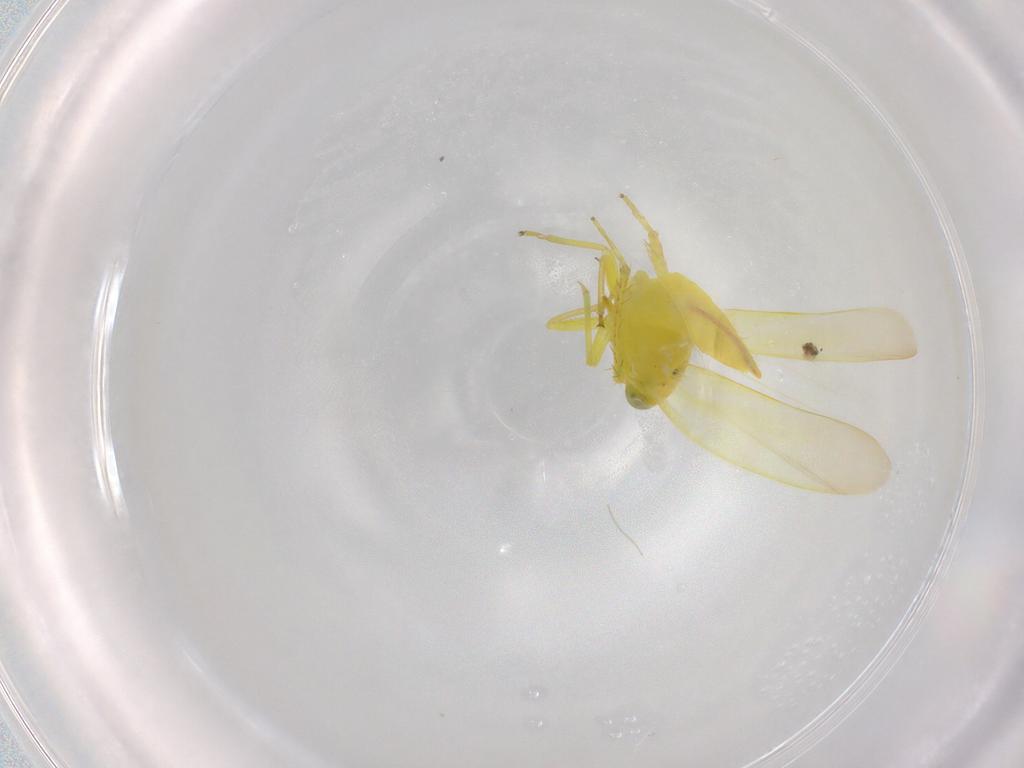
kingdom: Animalia
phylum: Arthropoda
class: Insecta
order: Hemiptera
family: Cicadellidae
